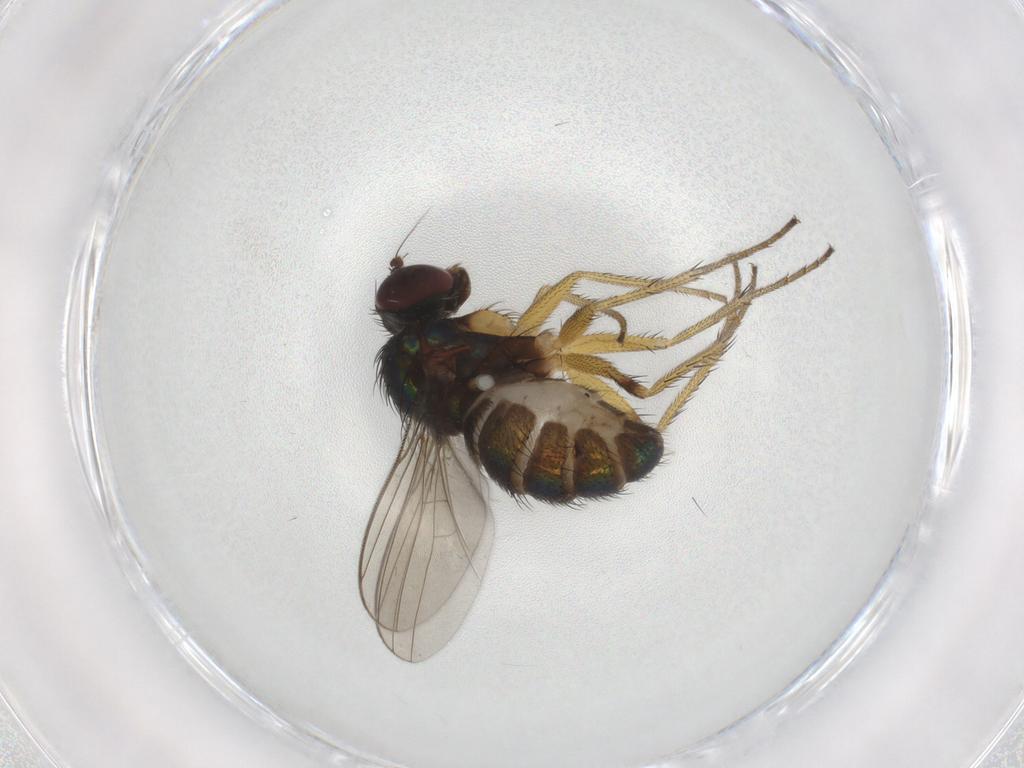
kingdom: Animalia
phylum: Arthropoda
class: Insecta
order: Diptera
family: Dolichopodidae
